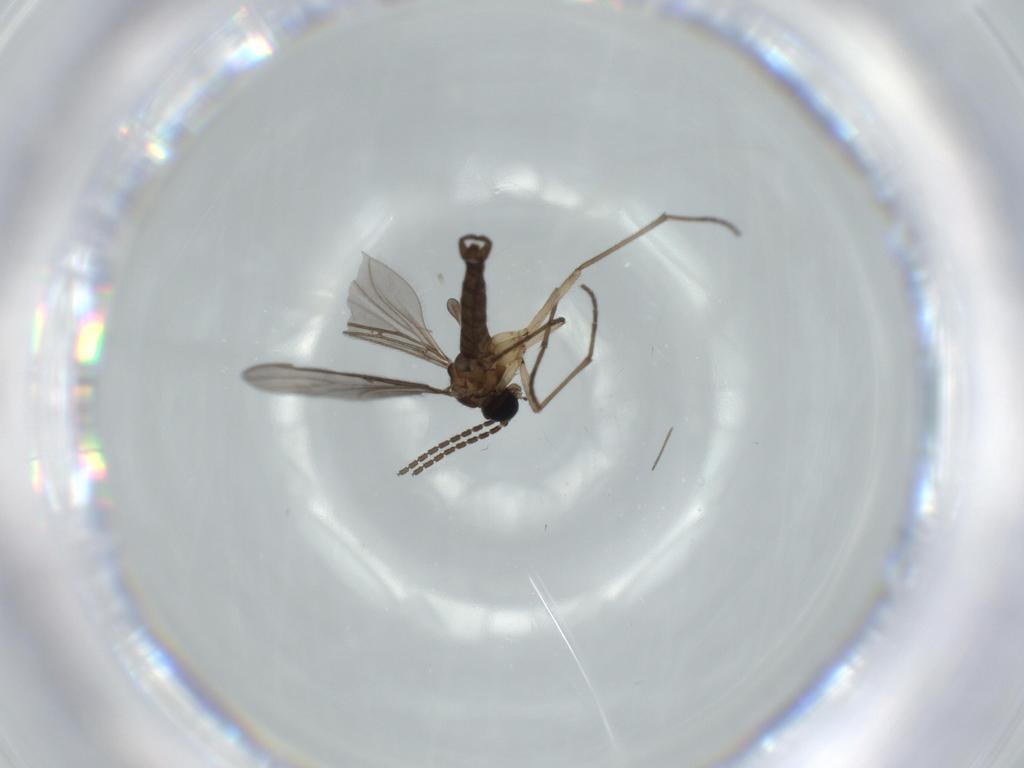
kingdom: Animalia
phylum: Arthropoda
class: Insecta
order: Diptera
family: Sciaridae
